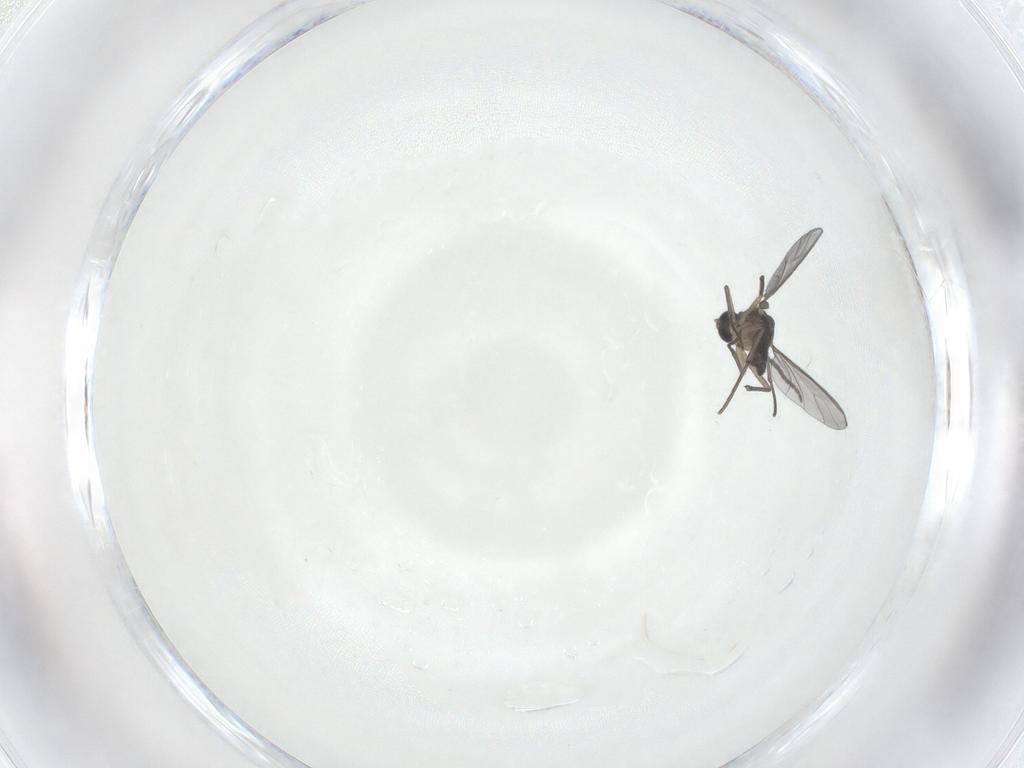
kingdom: Animalia
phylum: Arthropoda
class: Insecta
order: Diptera
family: Sciaridae
